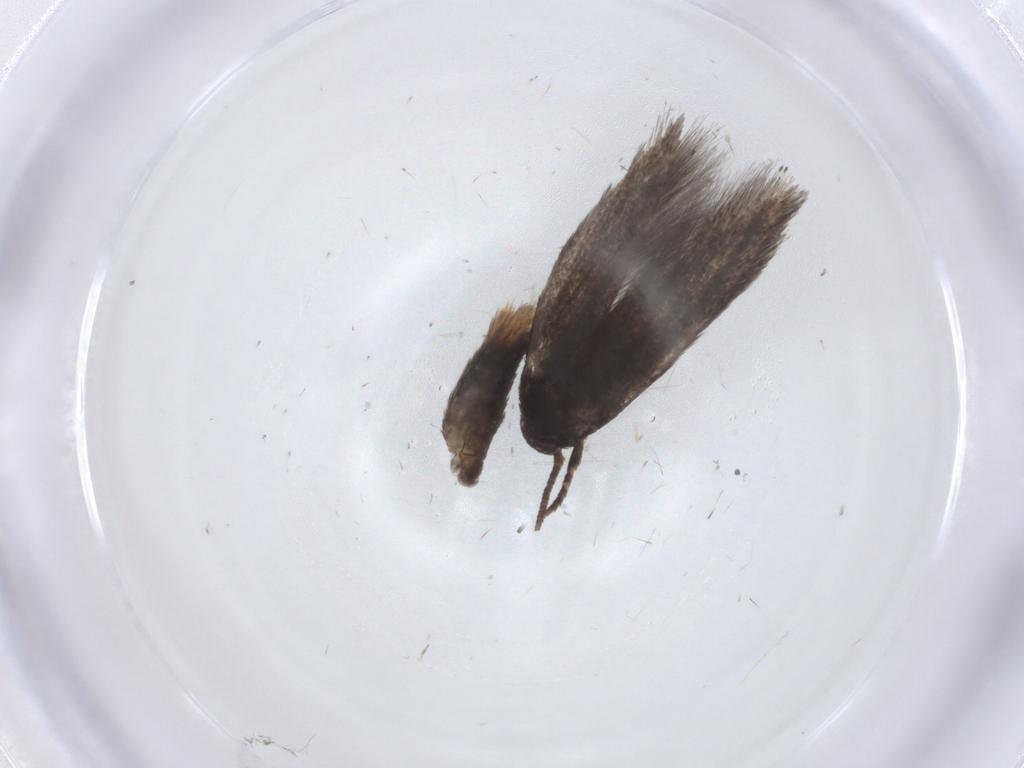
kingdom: Animalia
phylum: Arthropoda
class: Insecta
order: Lepidoptera
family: Elachistidae
